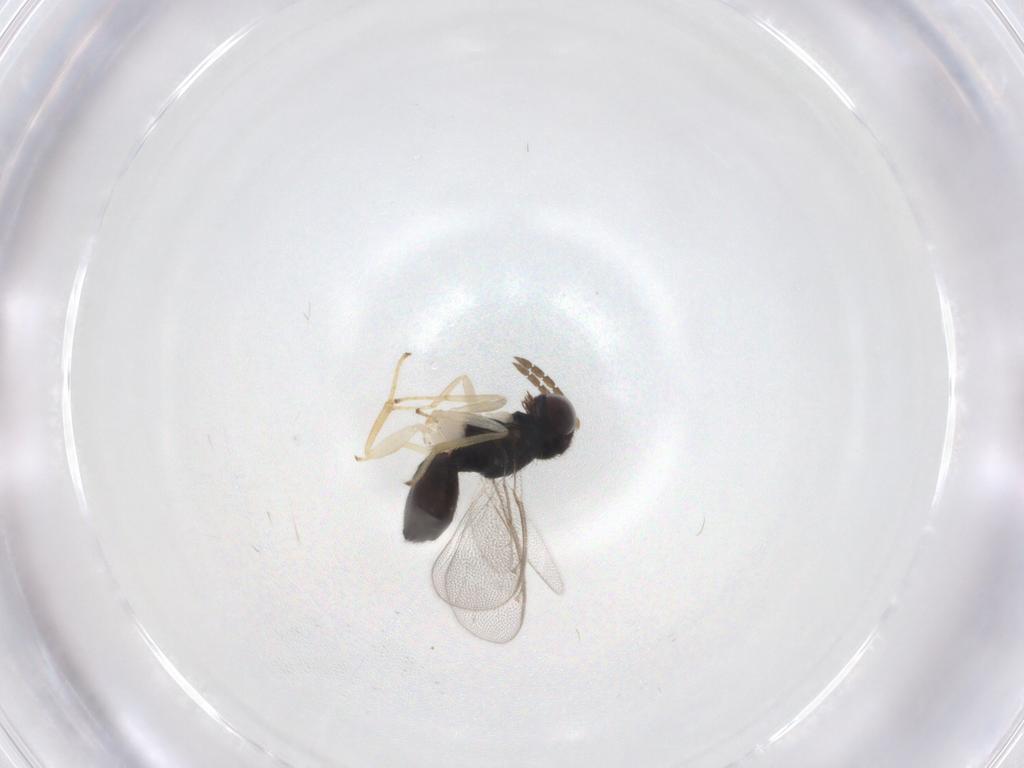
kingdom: Animalia
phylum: Arthropoda
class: Insecta
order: Hymenoptera
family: Eulophidae
